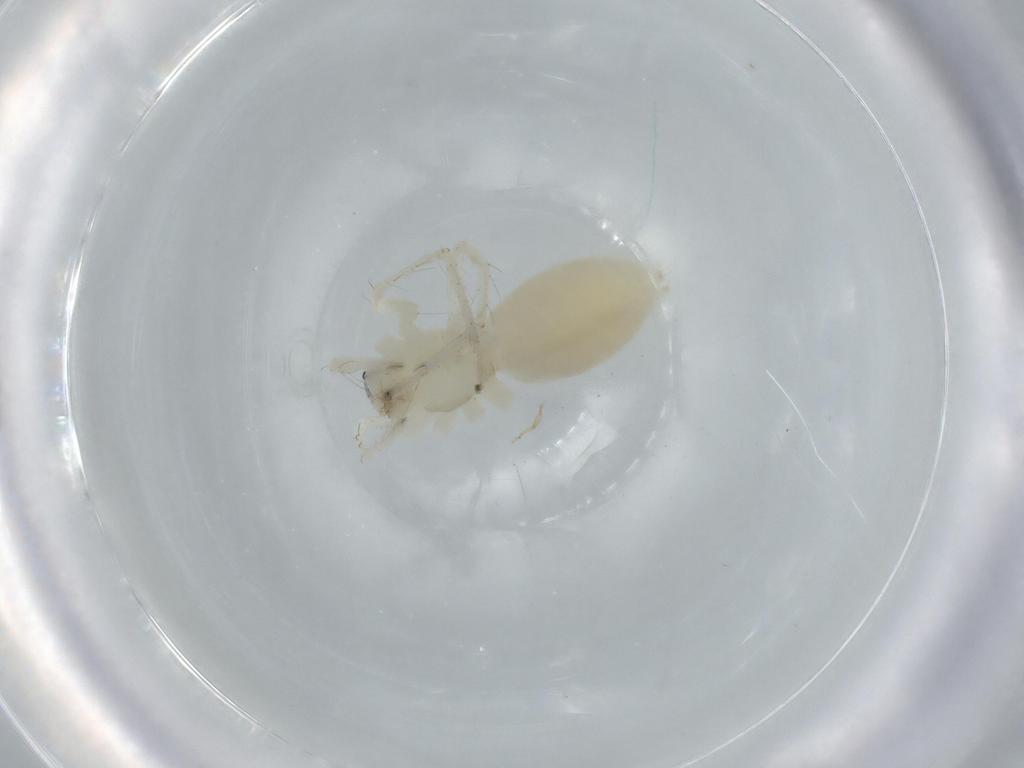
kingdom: Animalia
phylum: Arthropoda
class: Arachnida
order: Araneae
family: Anyphaenidae
